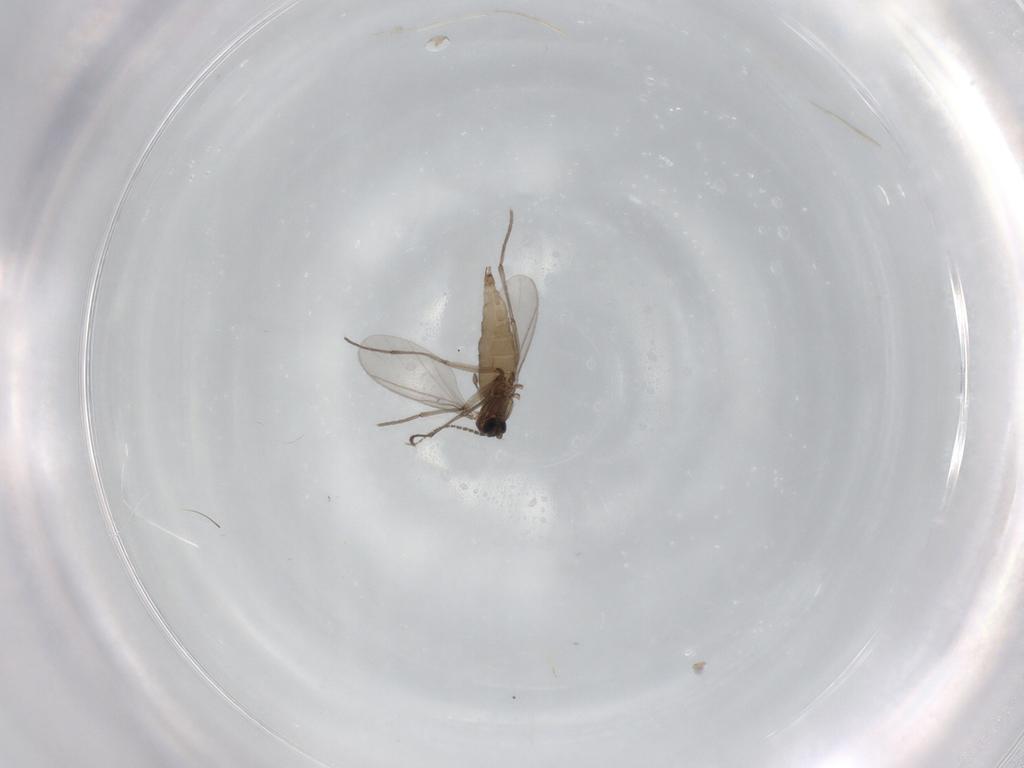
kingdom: Animalia
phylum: Arthropoda
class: Insecta
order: Diptera
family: Sciaridae
